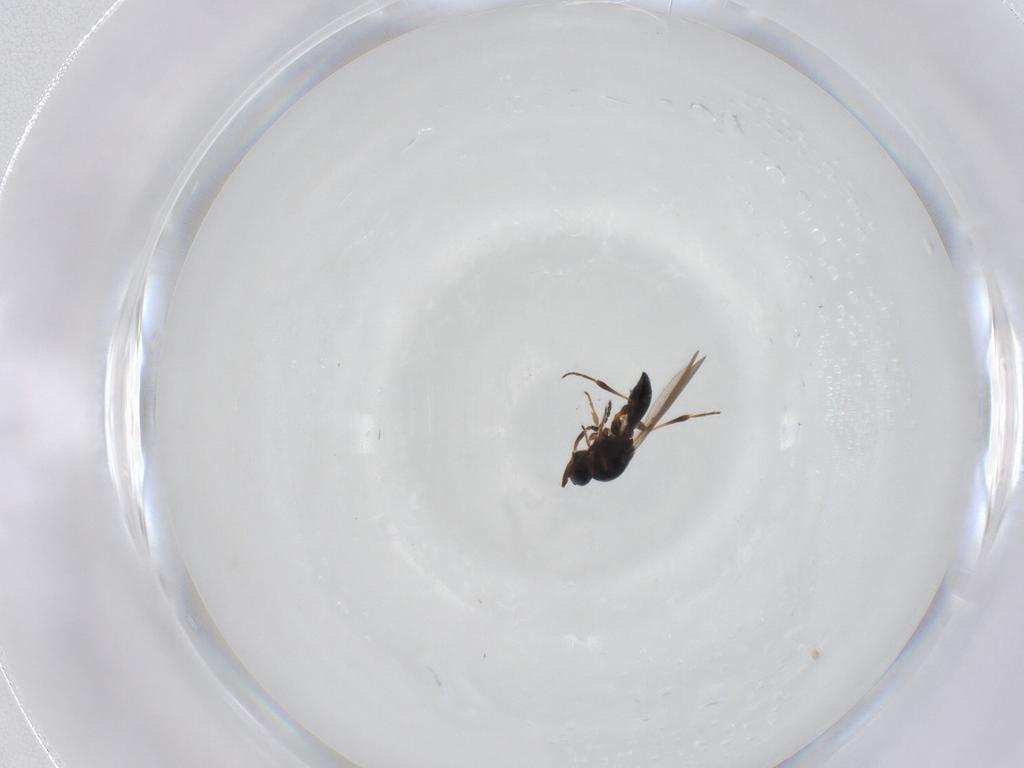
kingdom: Animalia
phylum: Arthropoda
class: Insecta
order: Hymenoptera
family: Platygastridae
